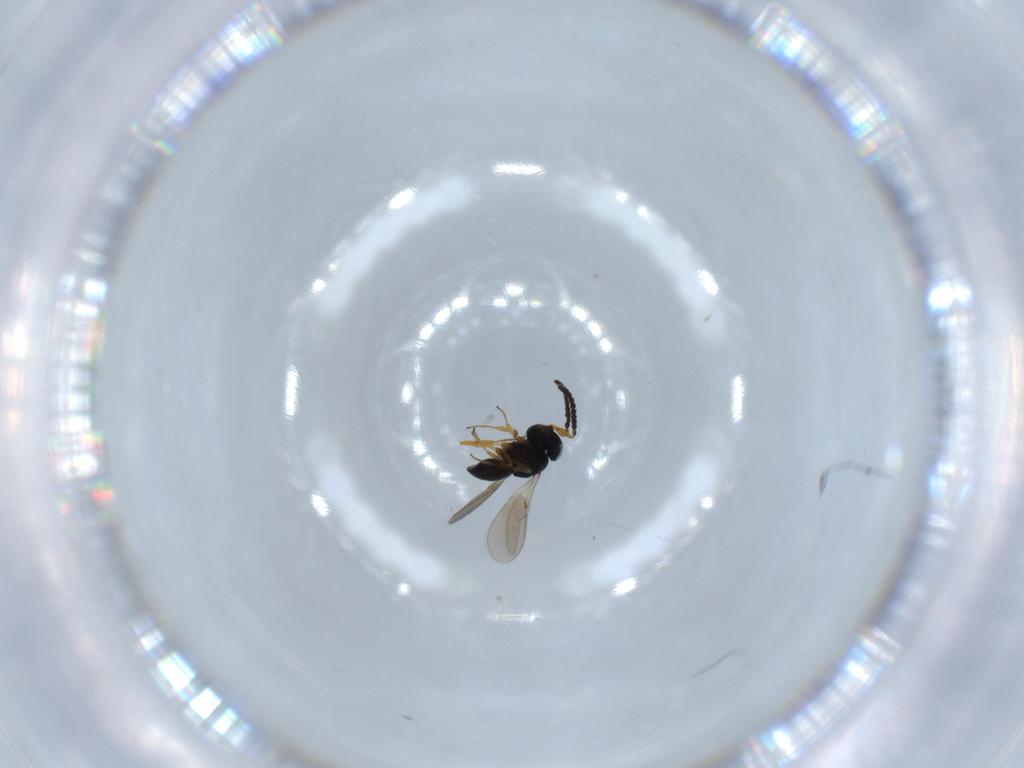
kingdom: Animalia
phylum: Arthropoda
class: Insecta
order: Hymenoptera
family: Scelionidae
